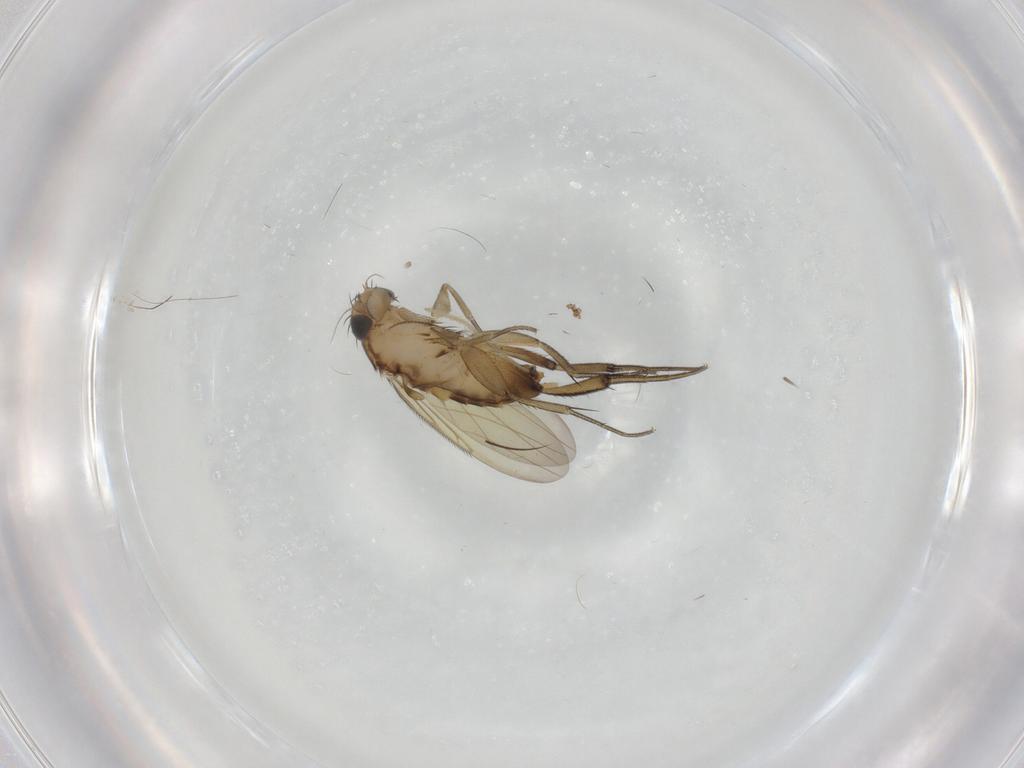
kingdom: Animalia
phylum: Arthropoda
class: Insecta
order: Diptera
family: Phoridae
